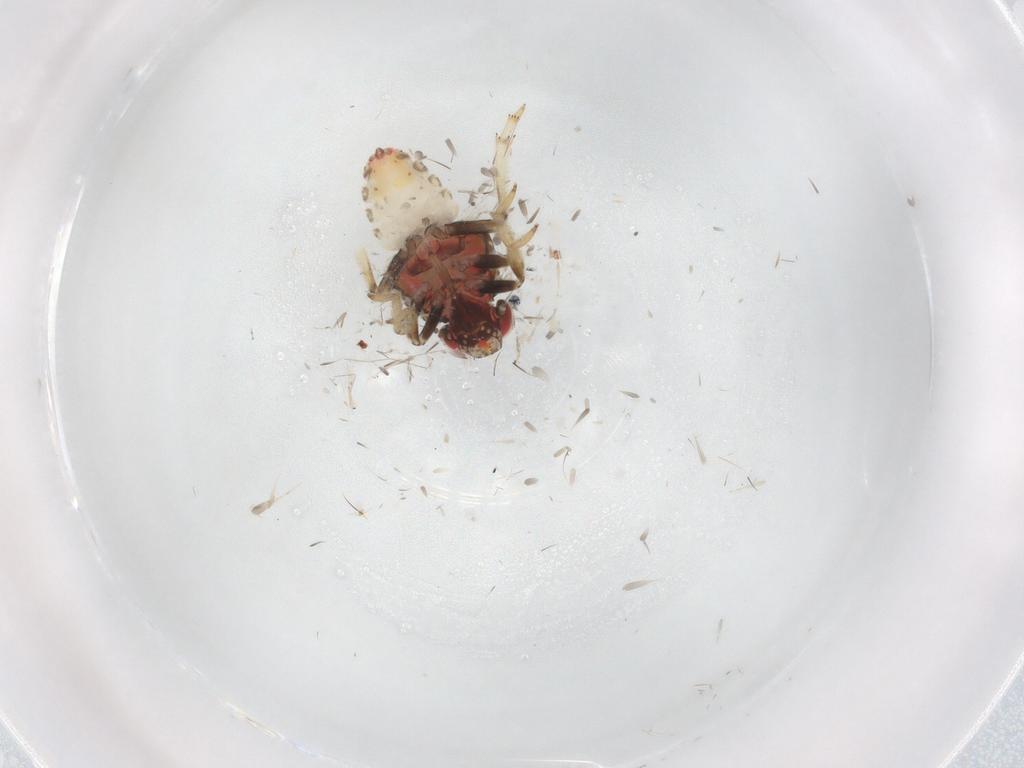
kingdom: Animalia
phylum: Arthropoda
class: Insecta
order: Hemiptera
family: Issidae
